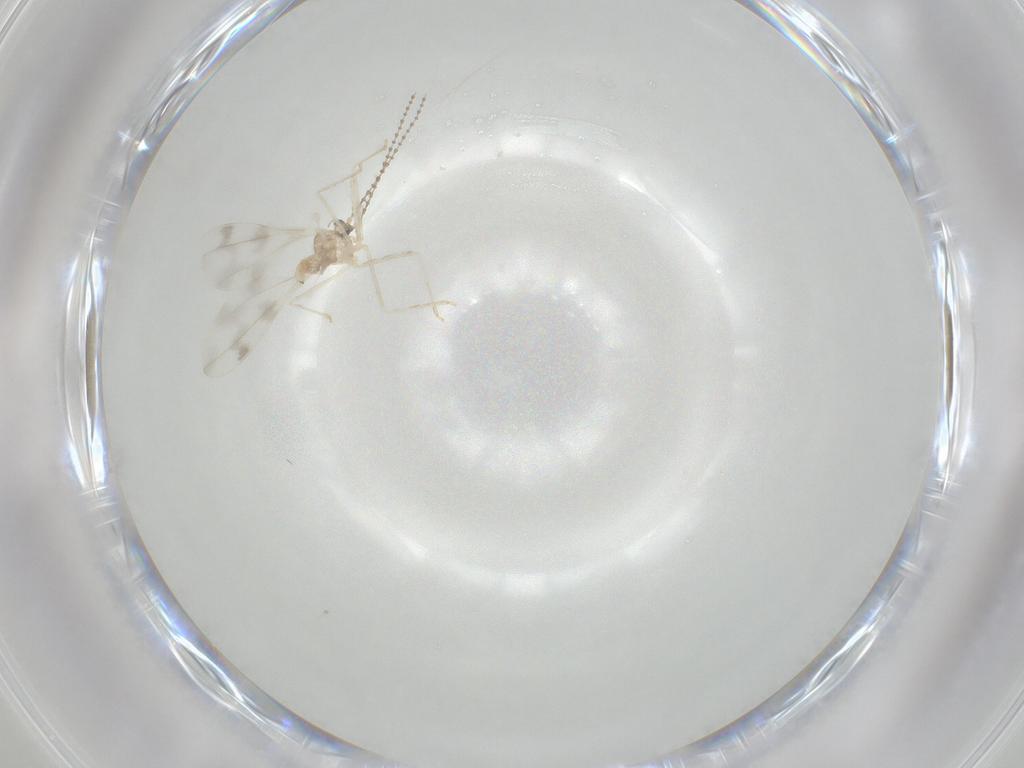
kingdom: Animalia
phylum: Arthropoda
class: Insecta
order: Diptera
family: Cecidomyiidae
